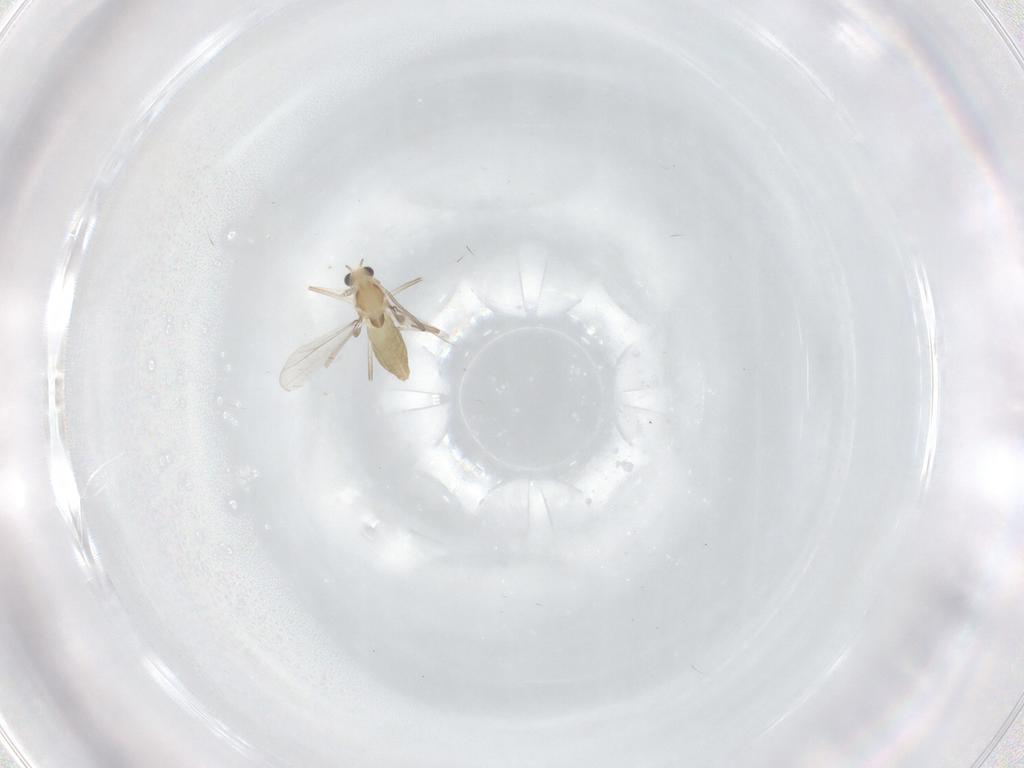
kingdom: Animalia
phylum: Arthropoda
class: Insecta
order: Diptera
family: Chironomidae
